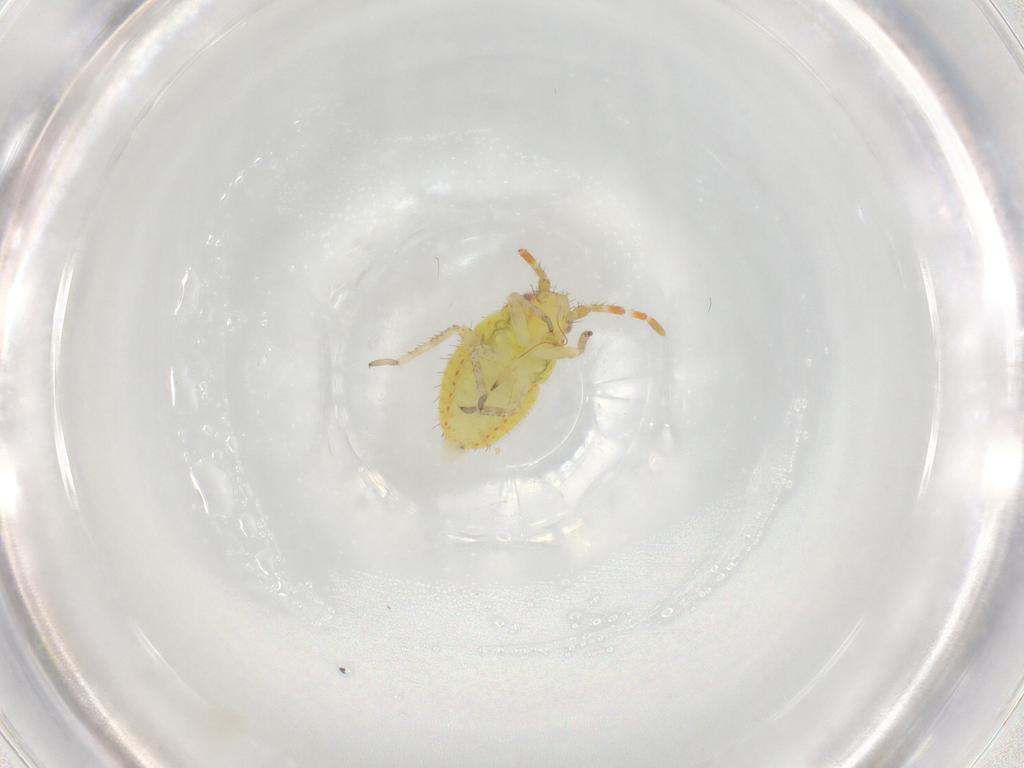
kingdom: Animalia
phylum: Arthropoda
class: Insecta
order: Hemiptera
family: Miridae
